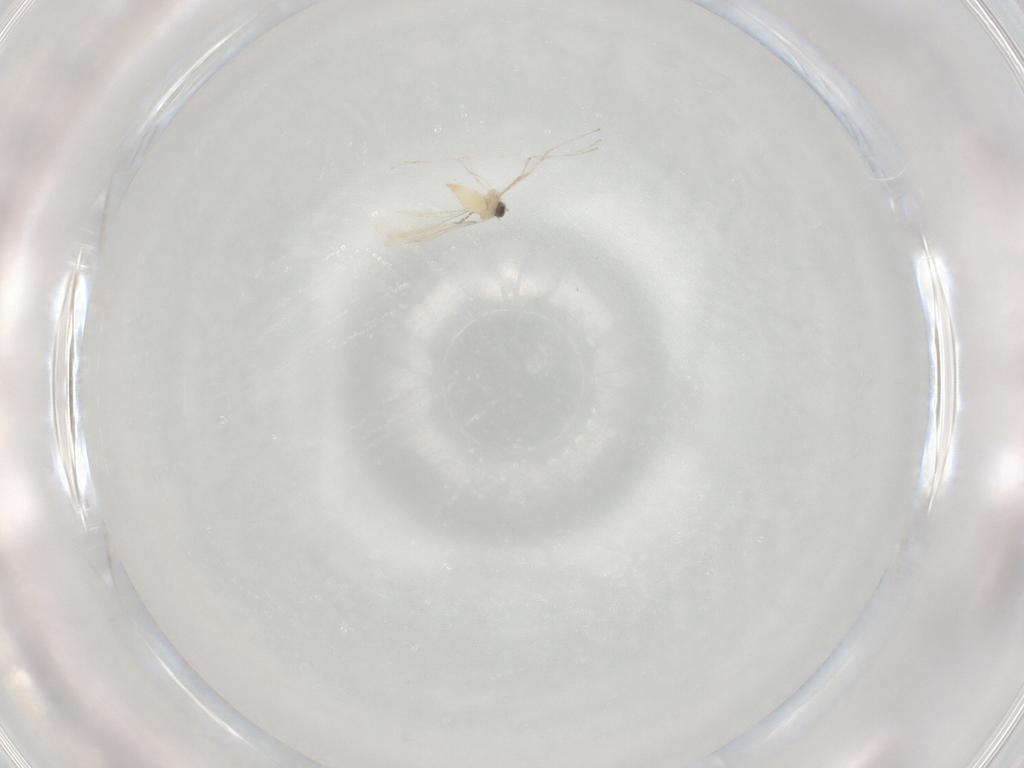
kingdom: Animalia
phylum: Arthropoda
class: Insecta
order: Diptera
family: Cecidomyiidae
